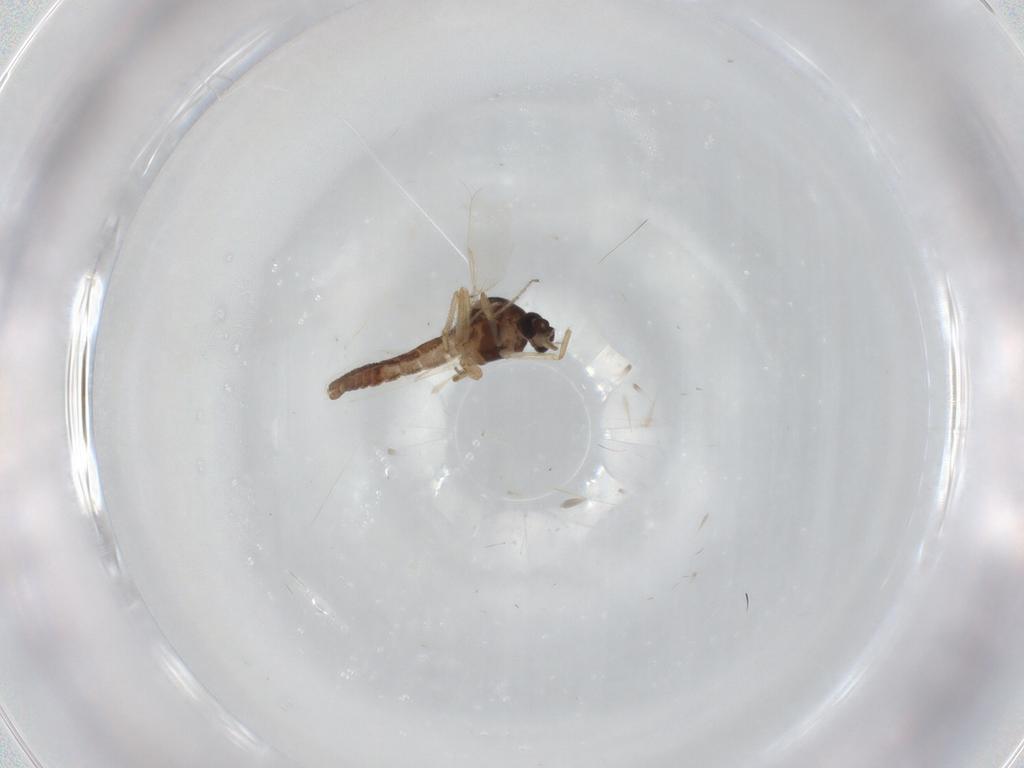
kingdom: Animalia
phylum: Arthropoda
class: Insecta
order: Diptera
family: Ceratopogonidae
